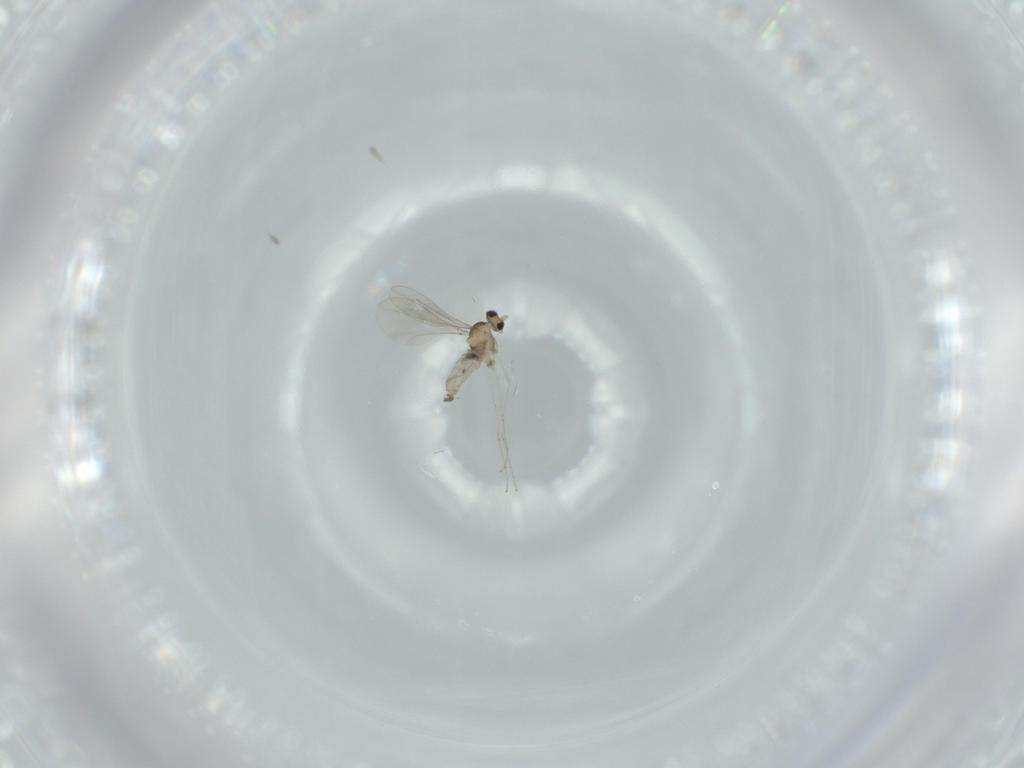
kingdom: Animalia
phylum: Arthropoda
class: Insecta
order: Diptera
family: Cecidomyiidae
